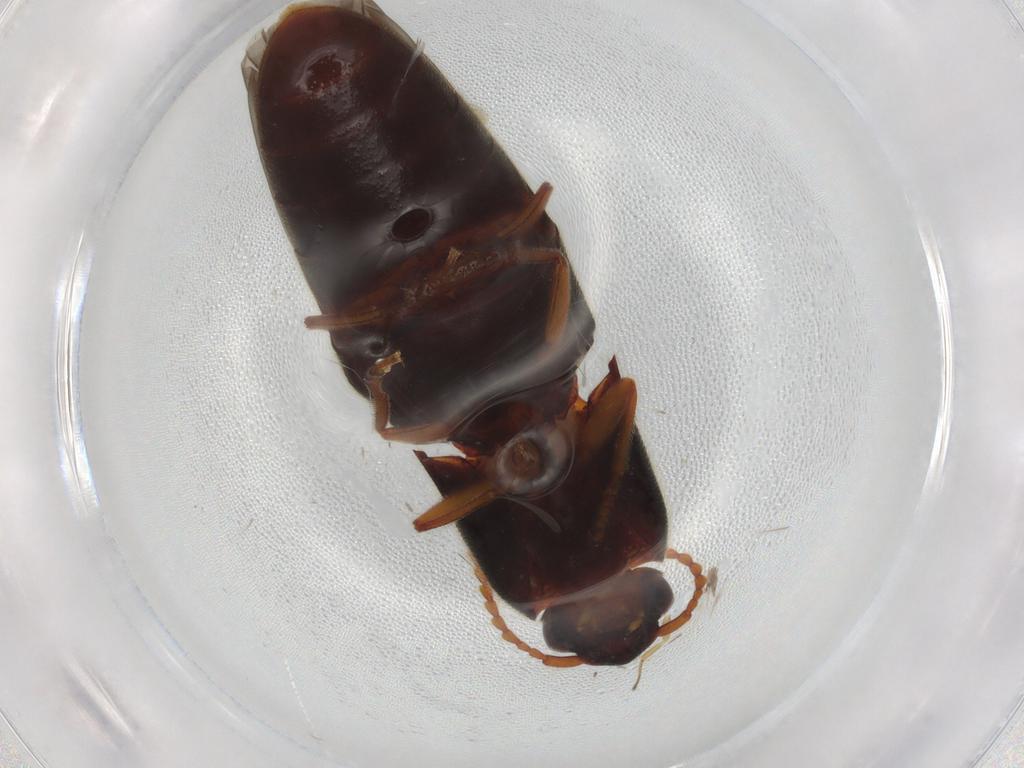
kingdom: Animalia
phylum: Arthropoda
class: Insecta
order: Coleoptera
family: Elateridae
